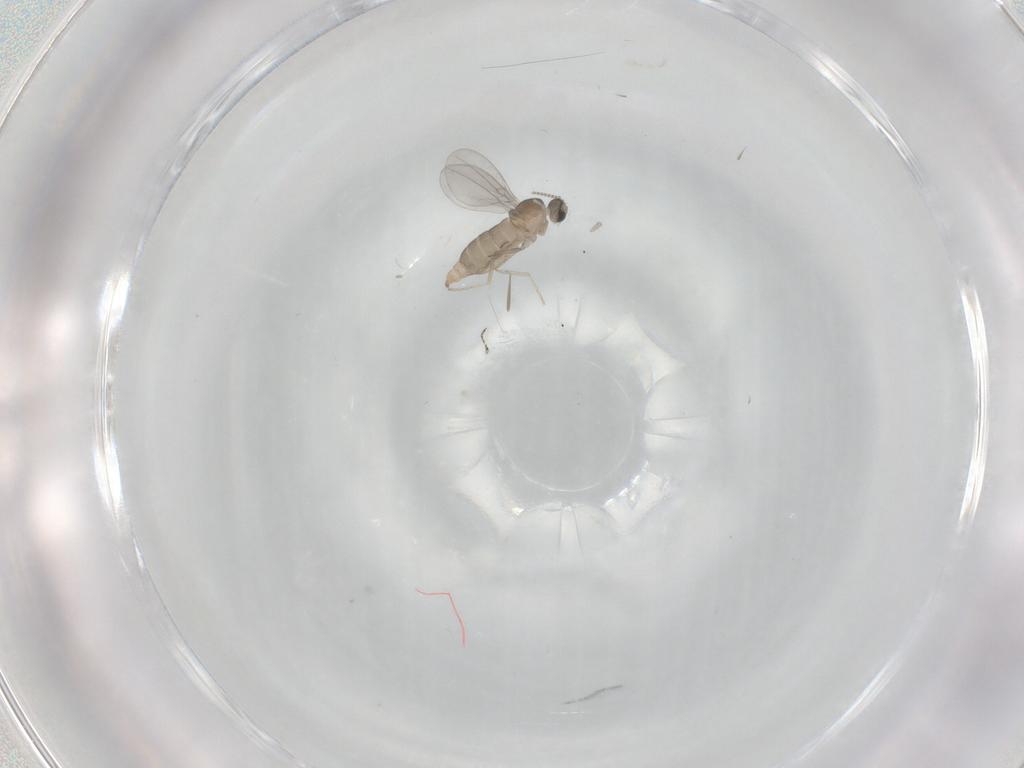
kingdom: Animalia
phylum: Arthropoda
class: Insecta
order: Diptera
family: Cecidomyiidae
